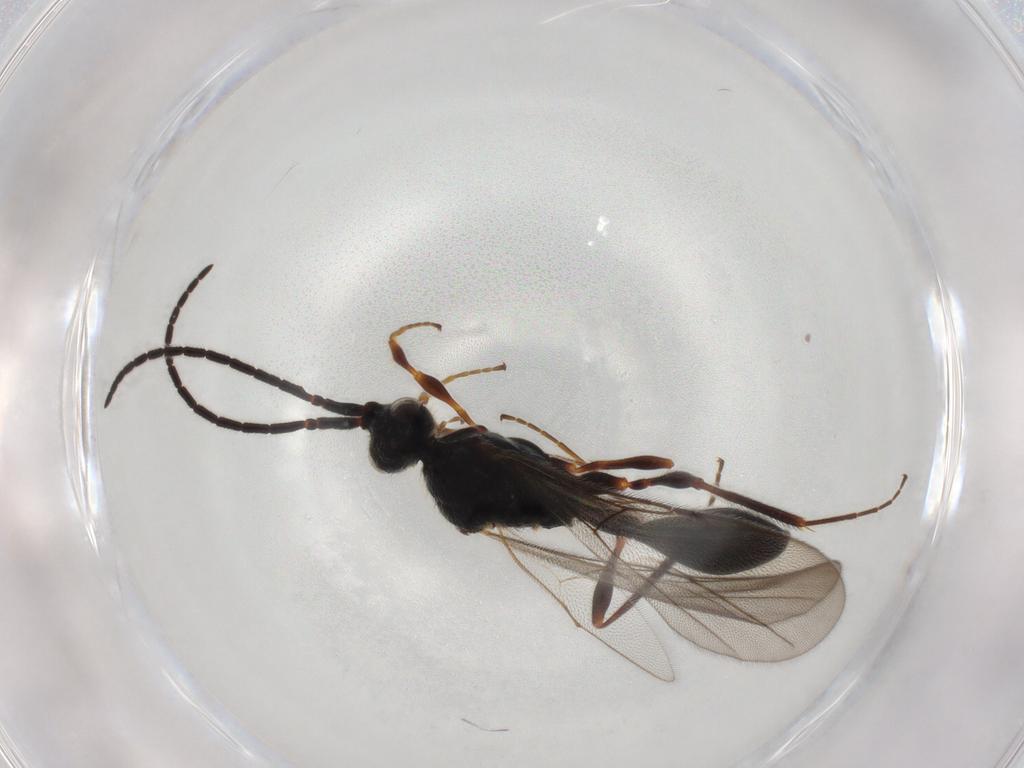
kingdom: Animalia
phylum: Arthropoda
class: Insecta
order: Hymenoptera
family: Diapriidae
